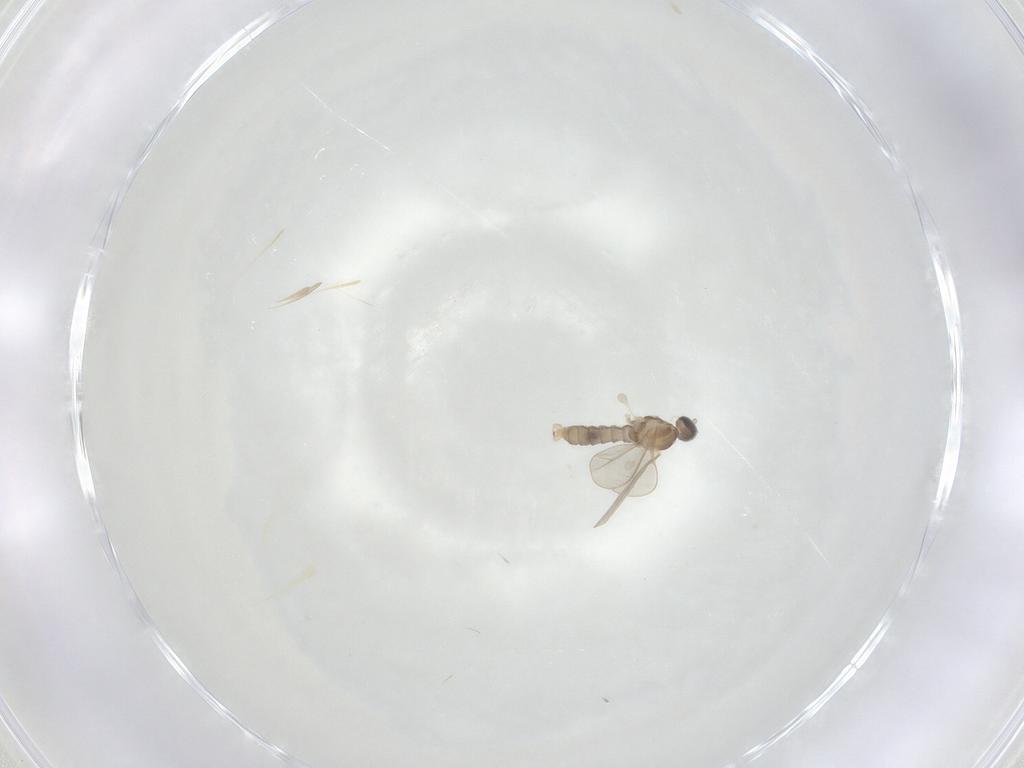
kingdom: Animalia
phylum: Arthropoda
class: Insecta
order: Diptera
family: Cecidomyiidae
